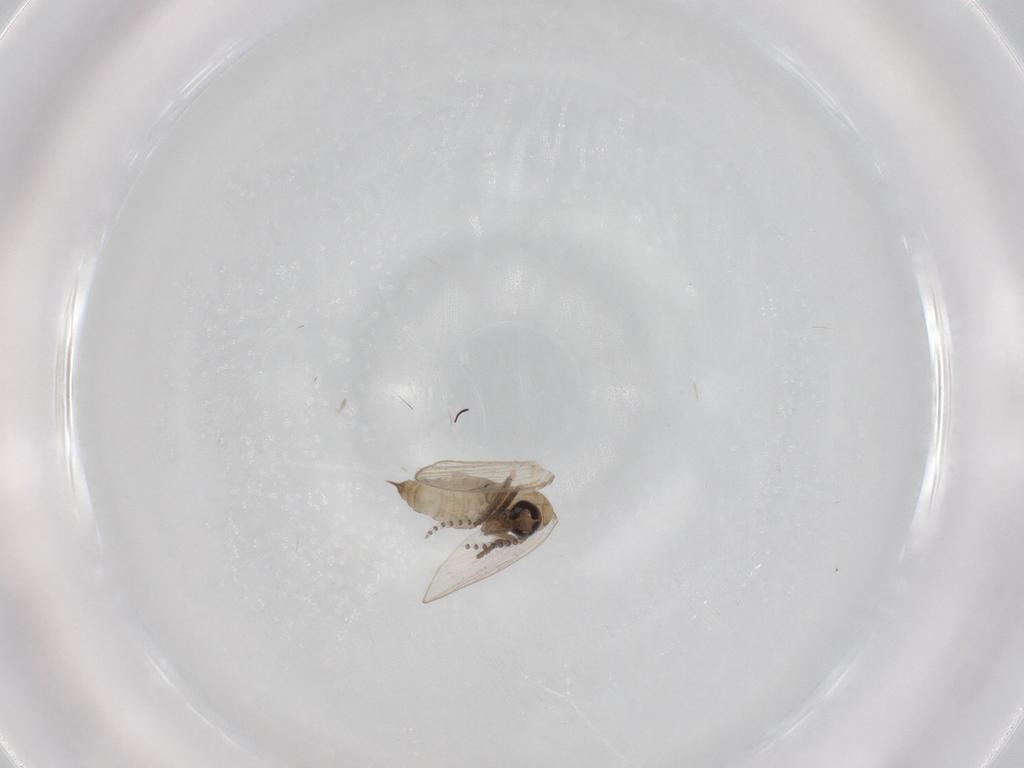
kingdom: Animalia
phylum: Arthropoda
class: Insecta
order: Diptera
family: Psychodidae
